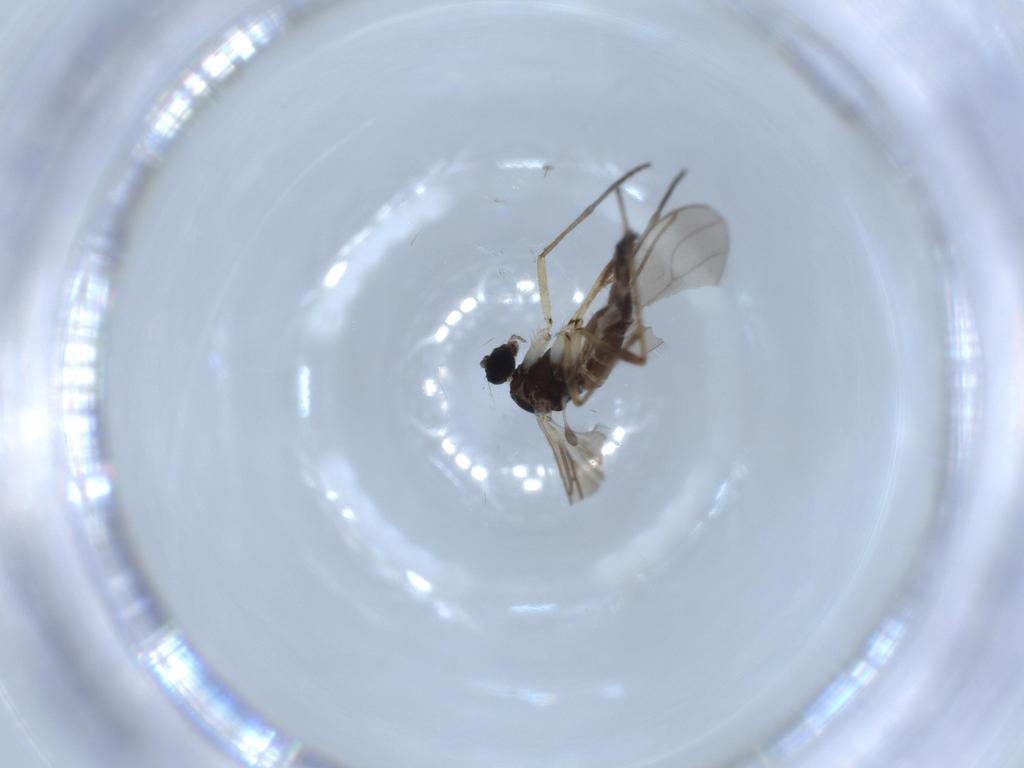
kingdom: Animalia
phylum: Arthropoda
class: Insecta
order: Diptera
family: Sciaridae
